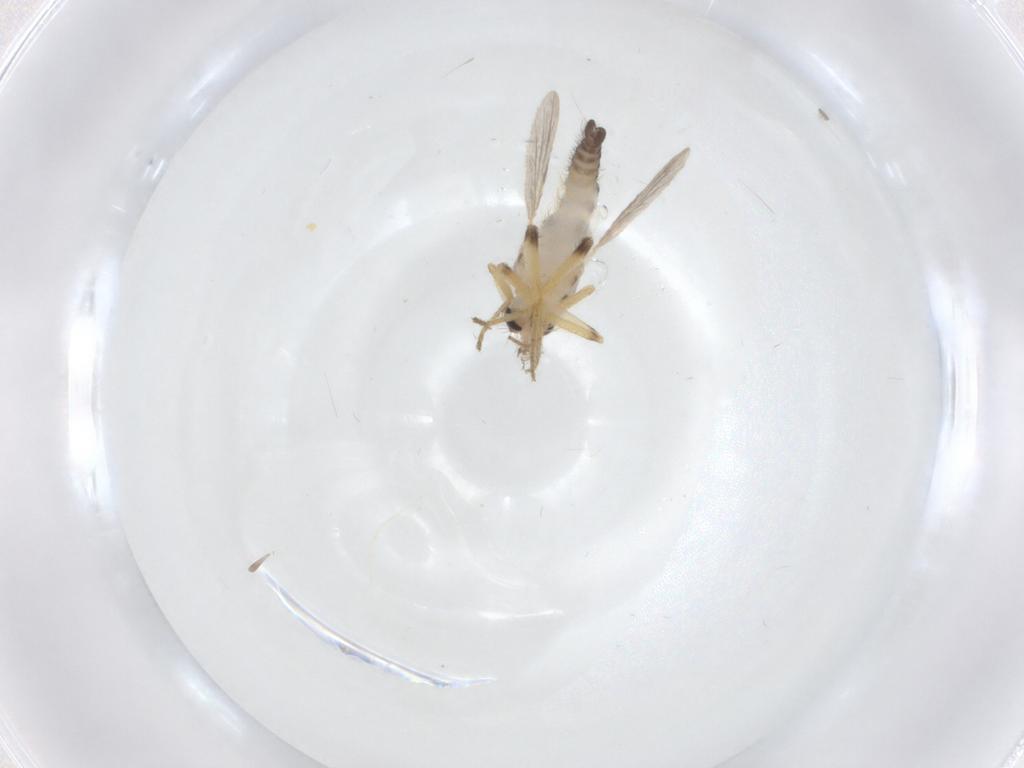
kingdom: Animalia
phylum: Arthropoda
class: Insecta
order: Diptera
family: Ceratopogonidae
